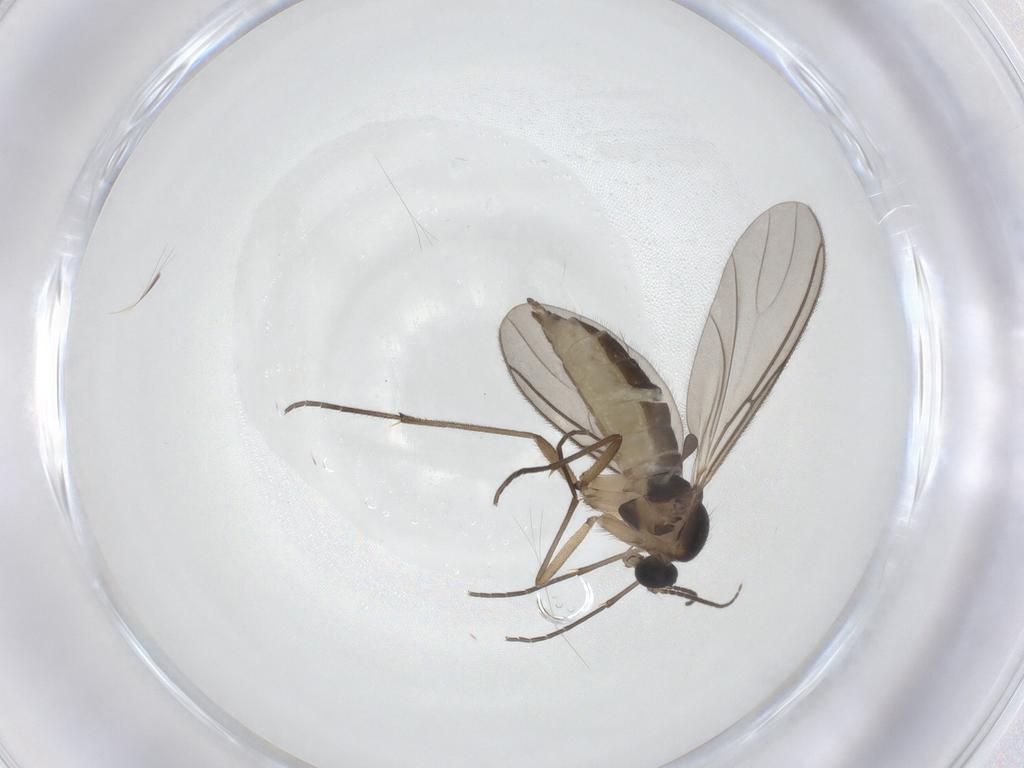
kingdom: Animalia
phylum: Arthropoda
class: Insecta
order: Diptera
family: Sciaridae
